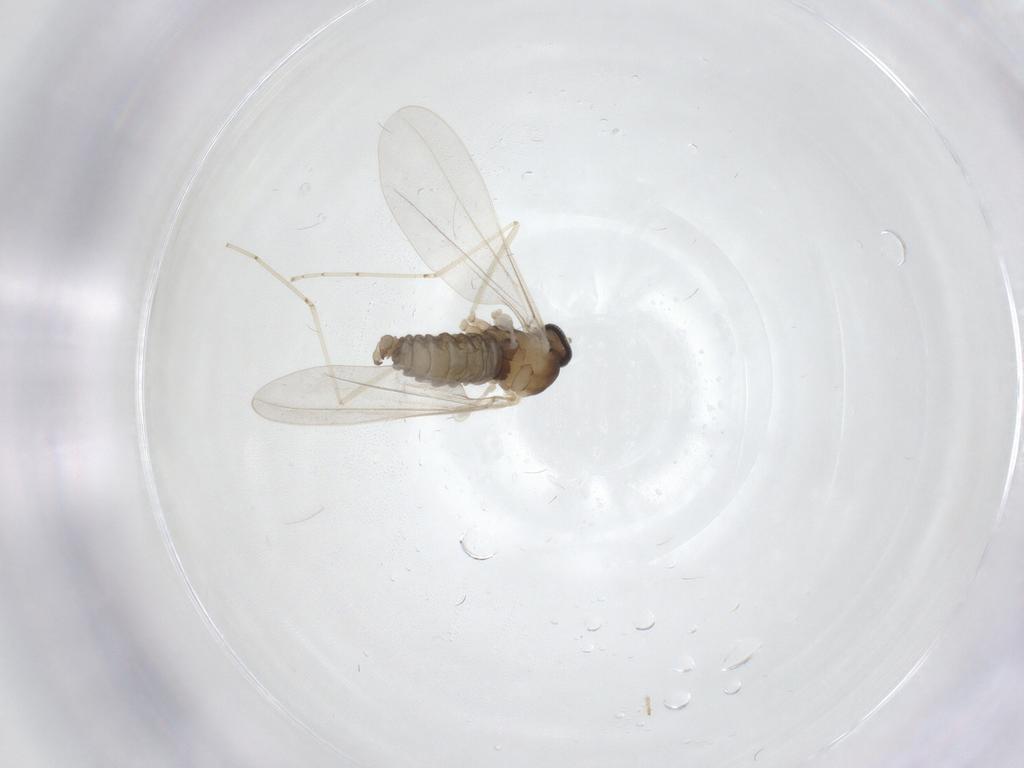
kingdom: Animalia
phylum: Arthropoda
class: Insecta
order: Diptera
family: Cecidomyiidae
